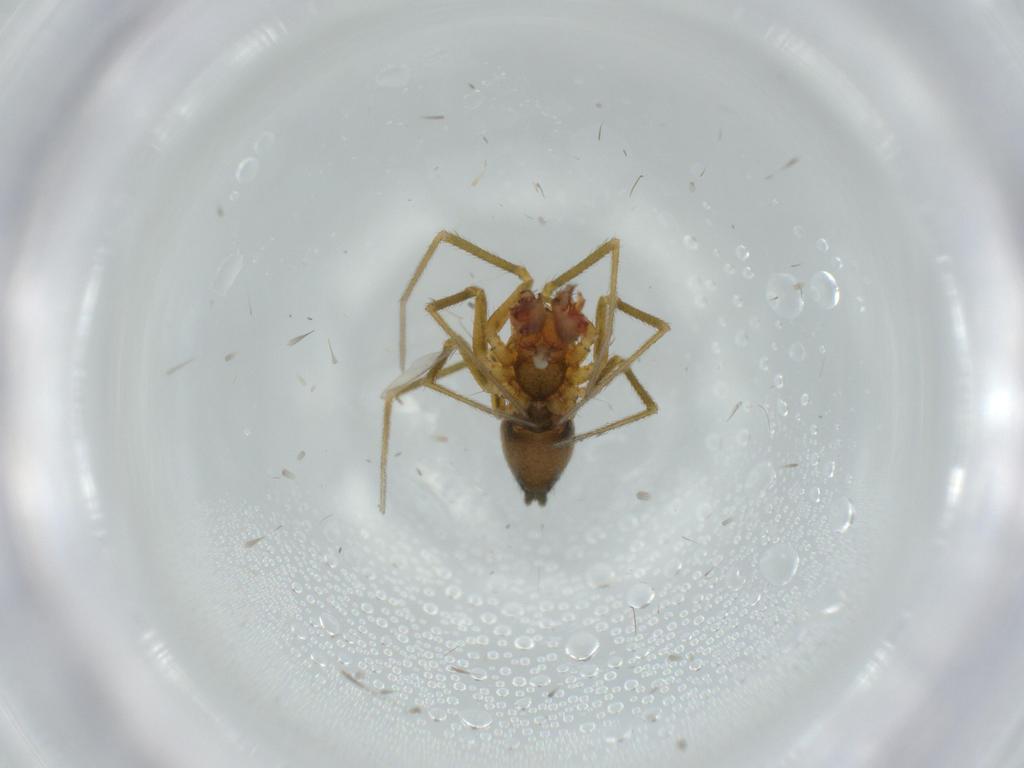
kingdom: Animalia
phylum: Arthropoda
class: Arachnida
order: Araneae
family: Linyphiidae
